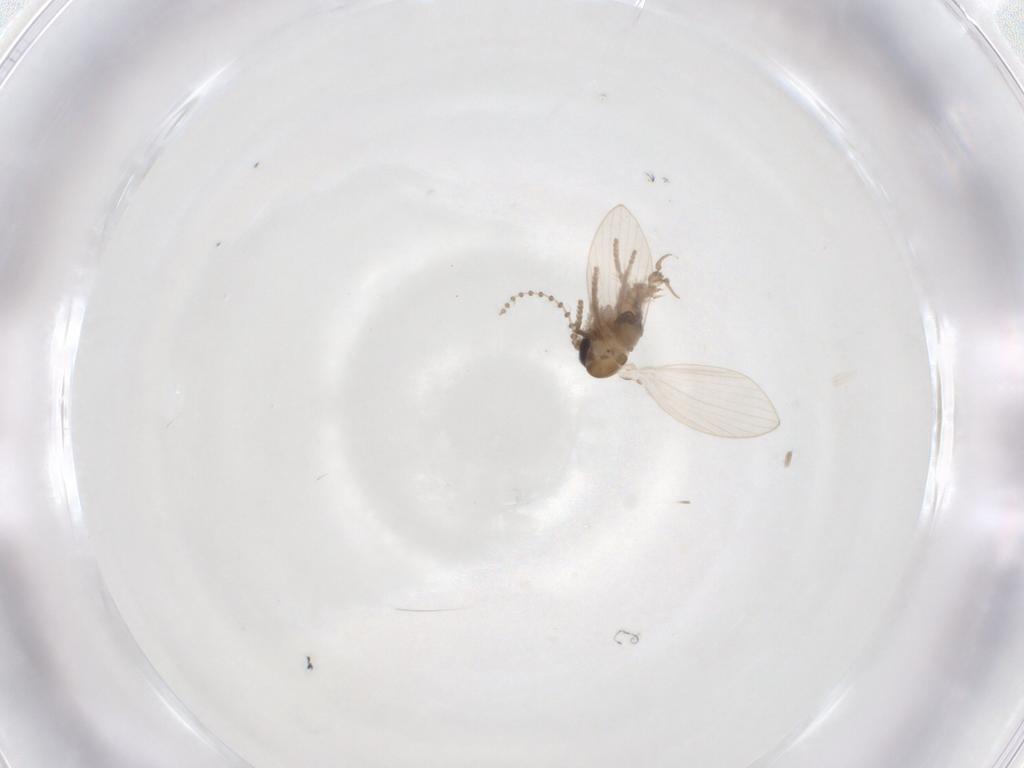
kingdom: Animalia
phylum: Arthropoda
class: Insecta
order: Diptera
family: Psychodidae
